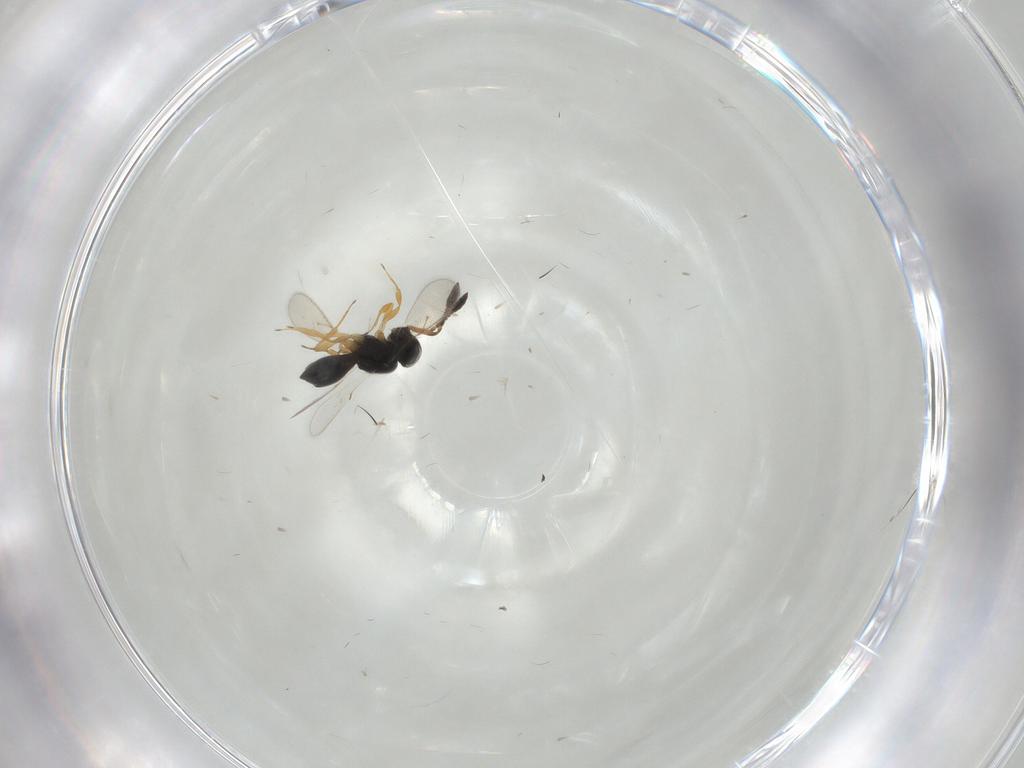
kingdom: Animalia
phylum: Arthropoda
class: Insecta
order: Hymenoptera
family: Scelionidae
